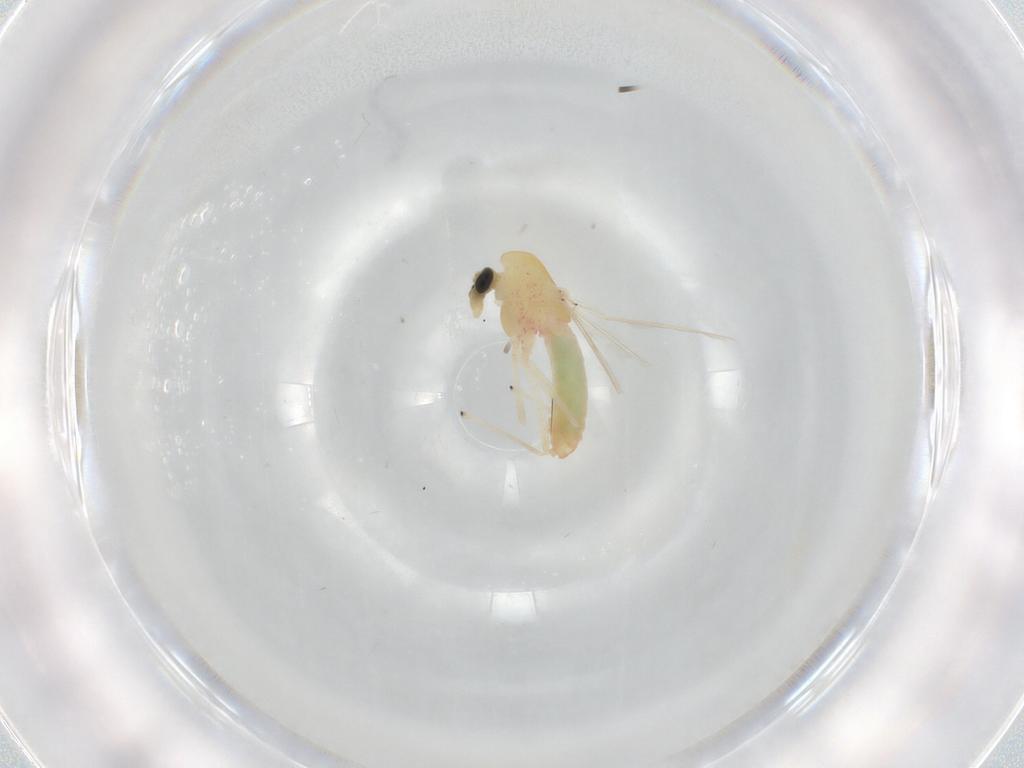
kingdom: Animalia
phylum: Arthropoda
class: Insecta
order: Diptera
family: Chironomidae
